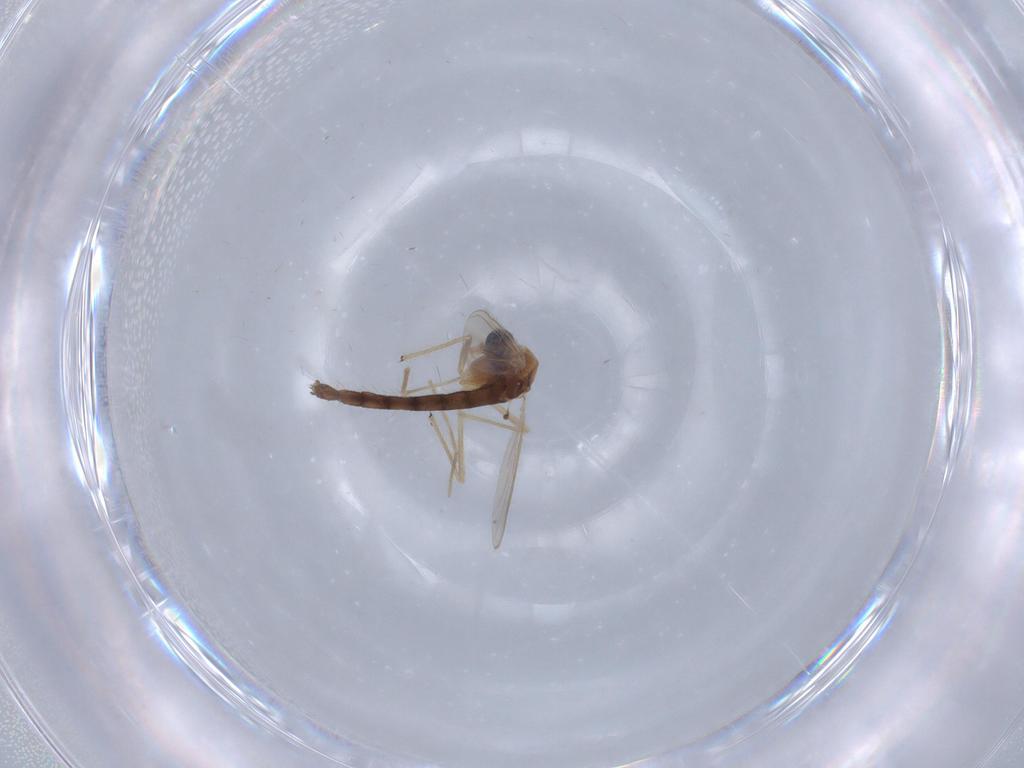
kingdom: Animalia
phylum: Arthropoda
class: Insecta
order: Diptera
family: Chironomidae
